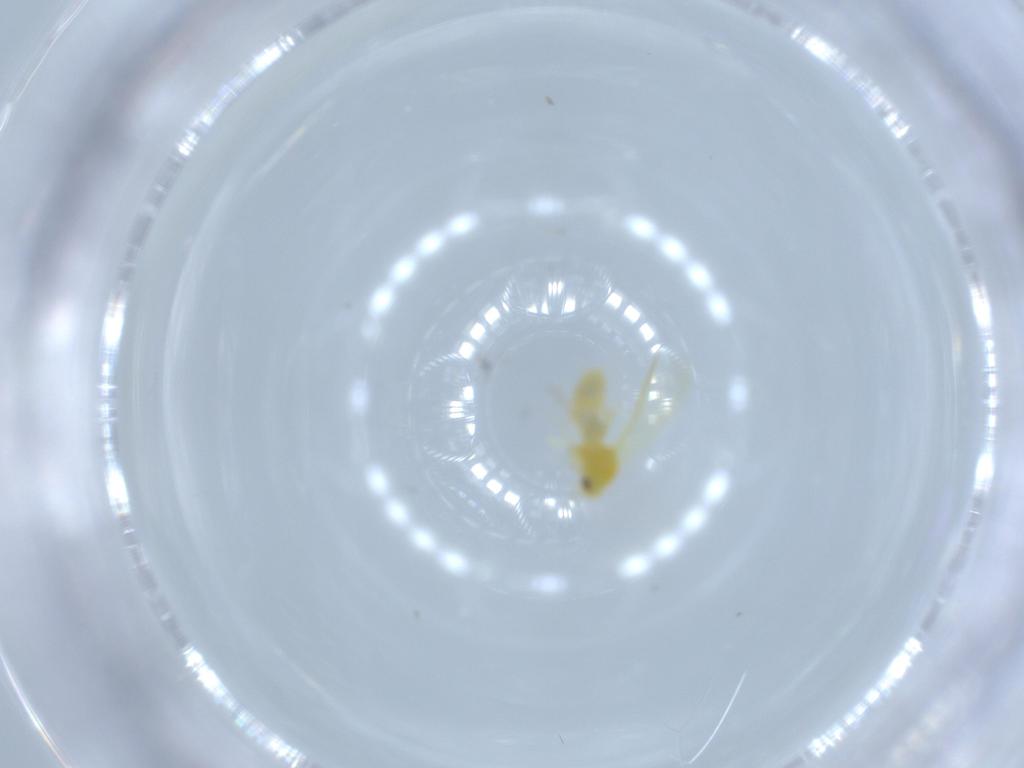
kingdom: Animalia
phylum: Arthropoda
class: Insecta
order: Hemiptera
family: Aleyrodidae
